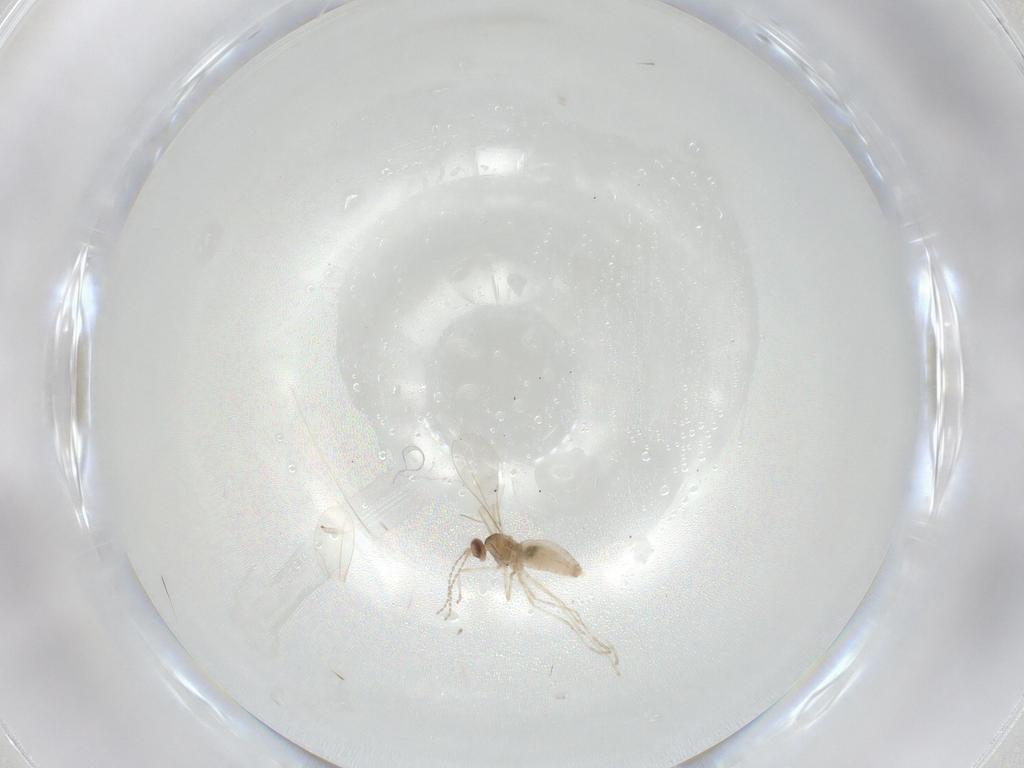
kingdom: Animalia
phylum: Arthropoda
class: Insecta
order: Diptera
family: Cecidomyiidae
